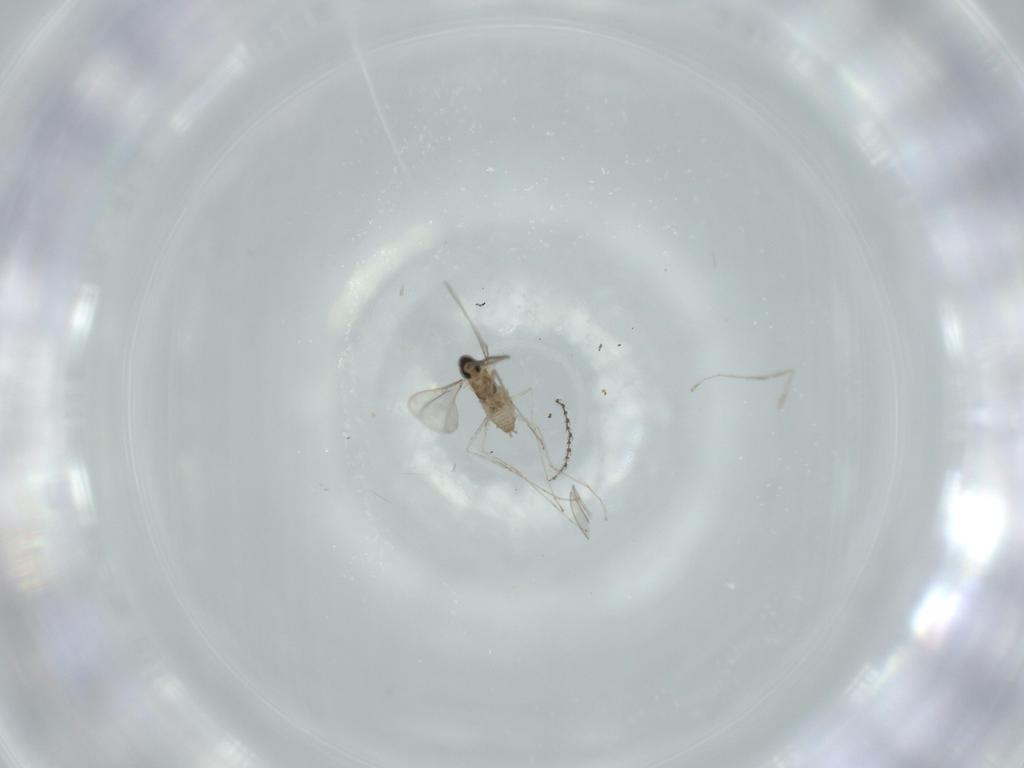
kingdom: Animalia
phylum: Arthropoda
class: Insecta
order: Diptera
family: Cecidomyiidae
